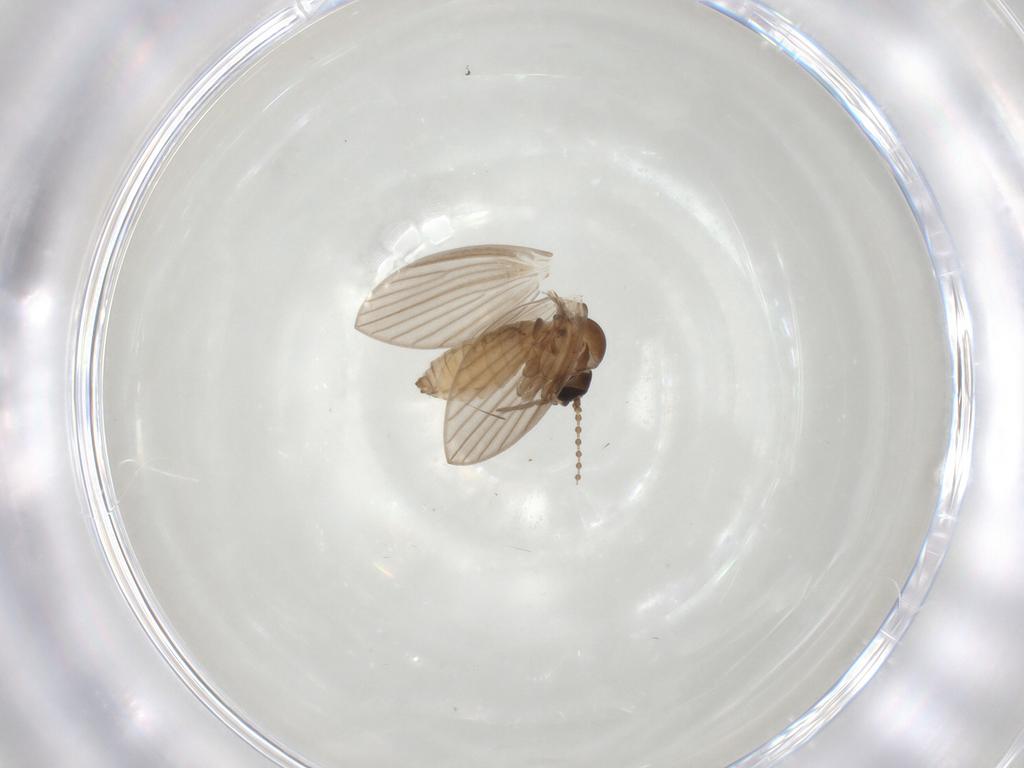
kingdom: Animalia
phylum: Arthropoda
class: Insecta
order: Diptera
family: Psychodidae
